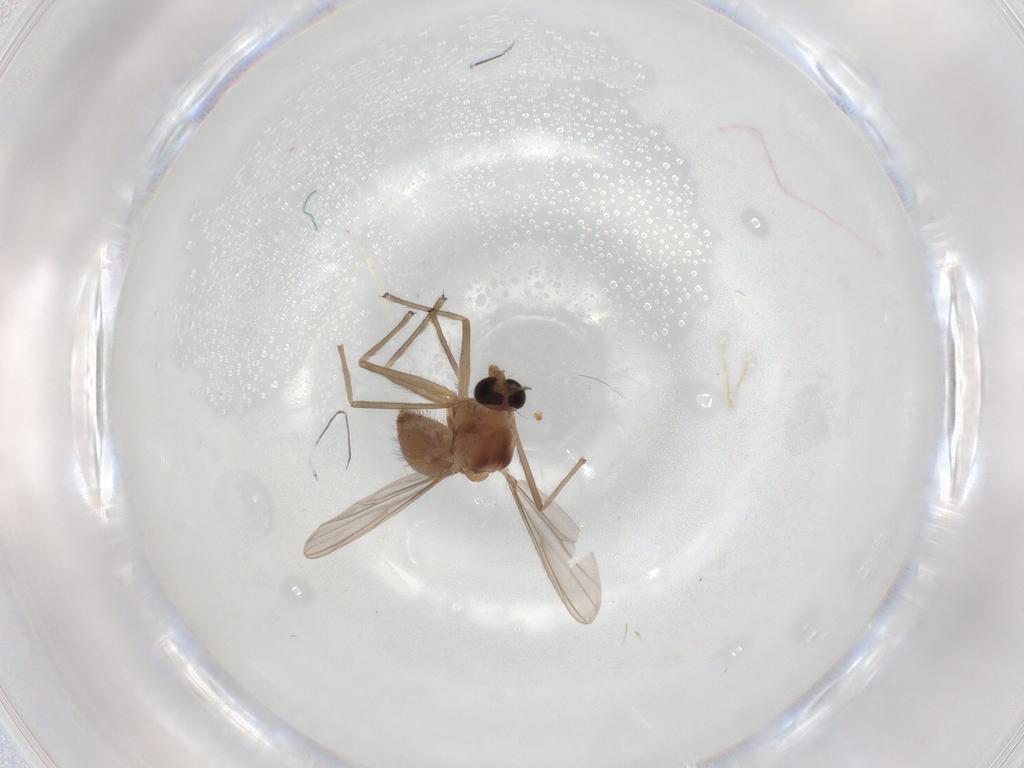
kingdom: Animalia
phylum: Arthropoda
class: Insecta
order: Diptera
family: Chironomidae
